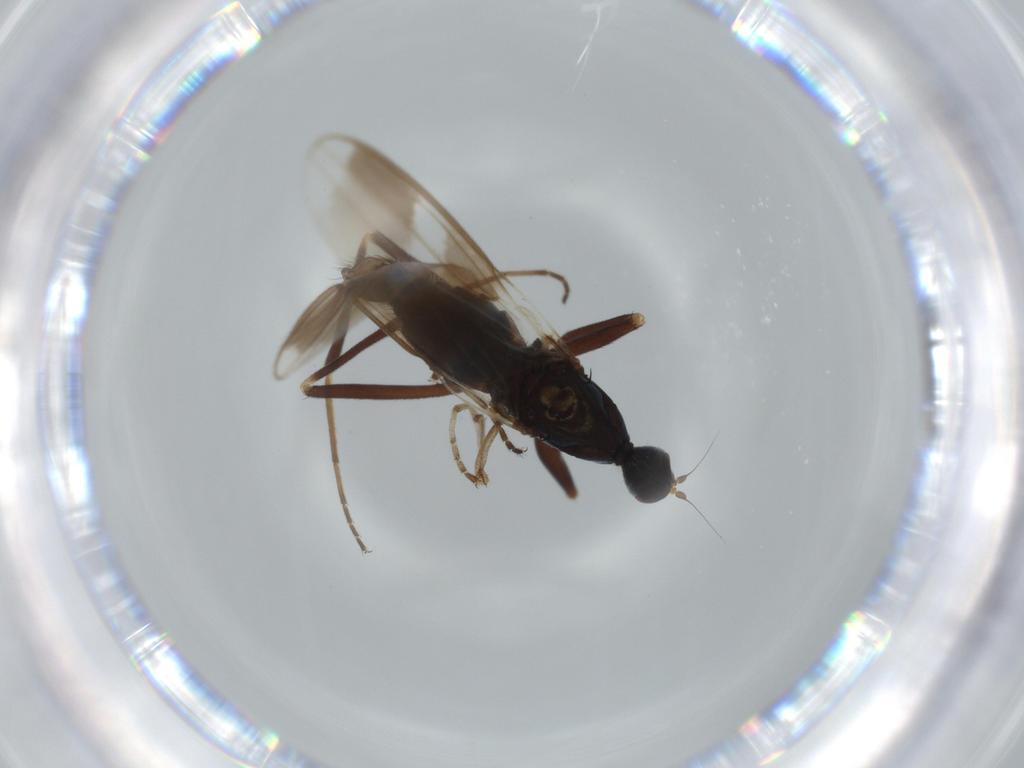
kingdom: Animalia
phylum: Arthropoda
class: Insecta
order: Diptera
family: Hybotidae
